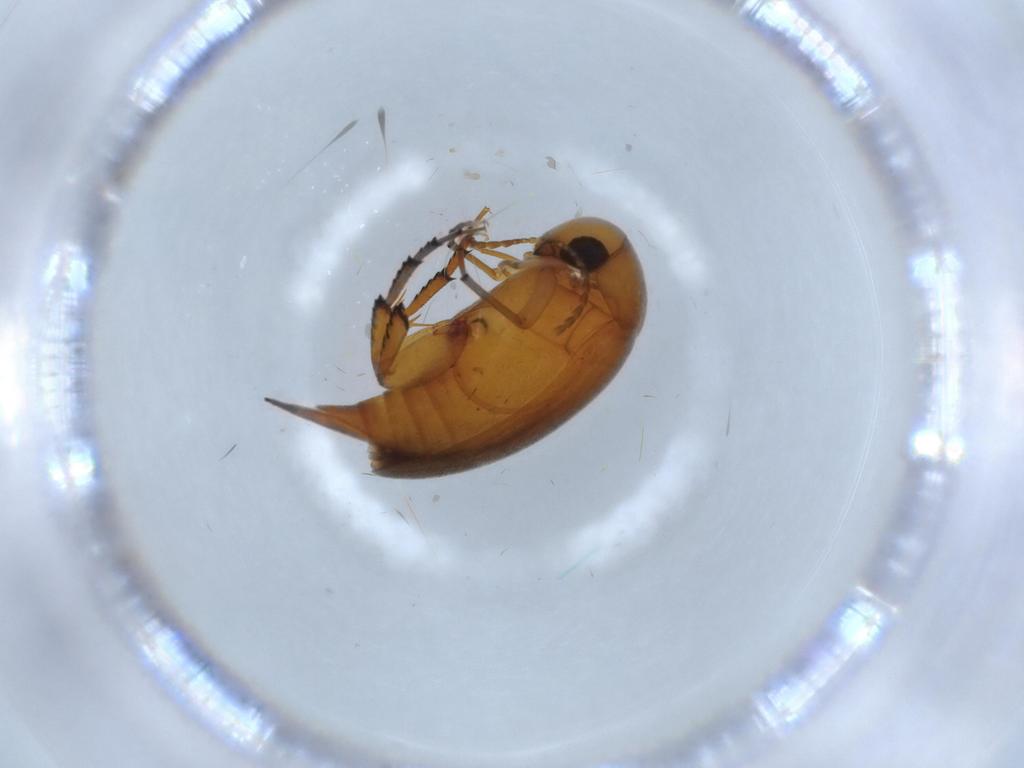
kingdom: Animalia
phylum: Arthropoda
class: Insecta
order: Coleoptera
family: Mordellidae
